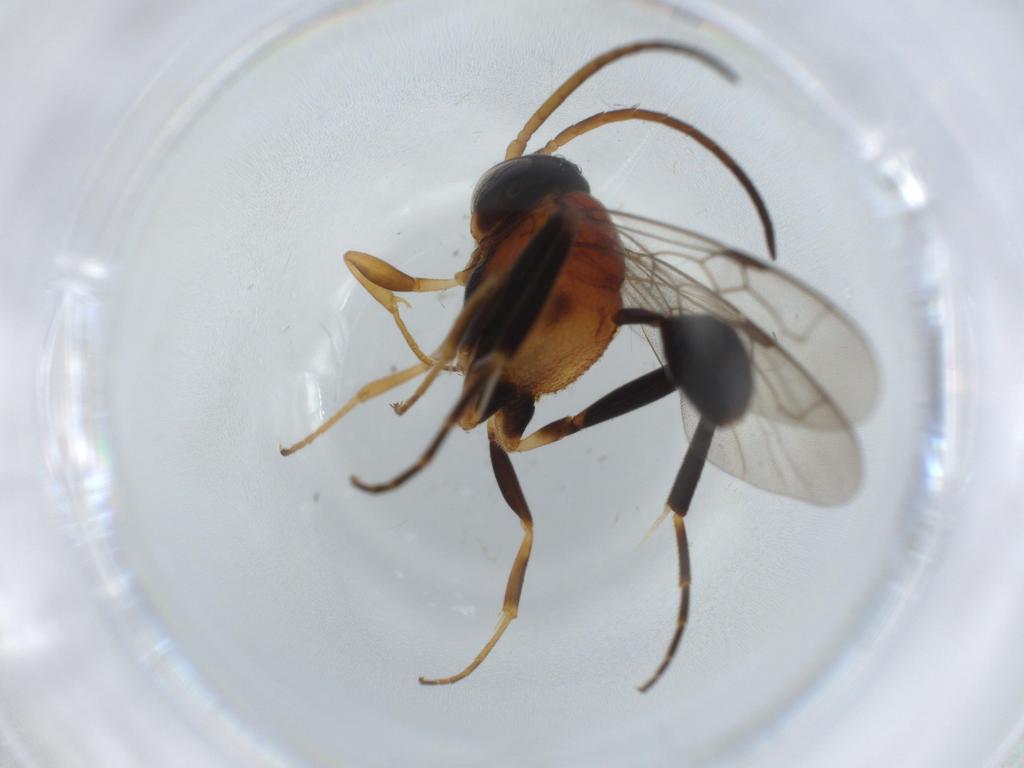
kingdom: Animalia
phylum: Arthropoda
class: Insecta
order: Hymenoptera
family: Evaniidae
